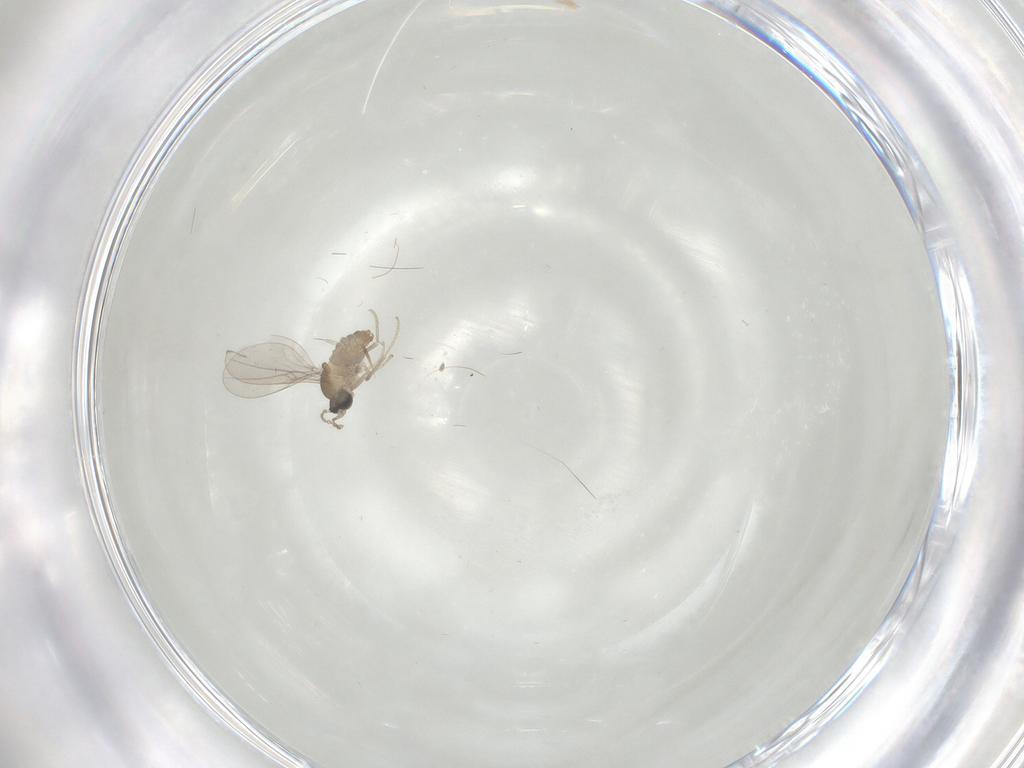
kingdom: Animalia
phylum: Arthropoda
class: Insecta
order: Diptera
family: Cecidomyiidae
